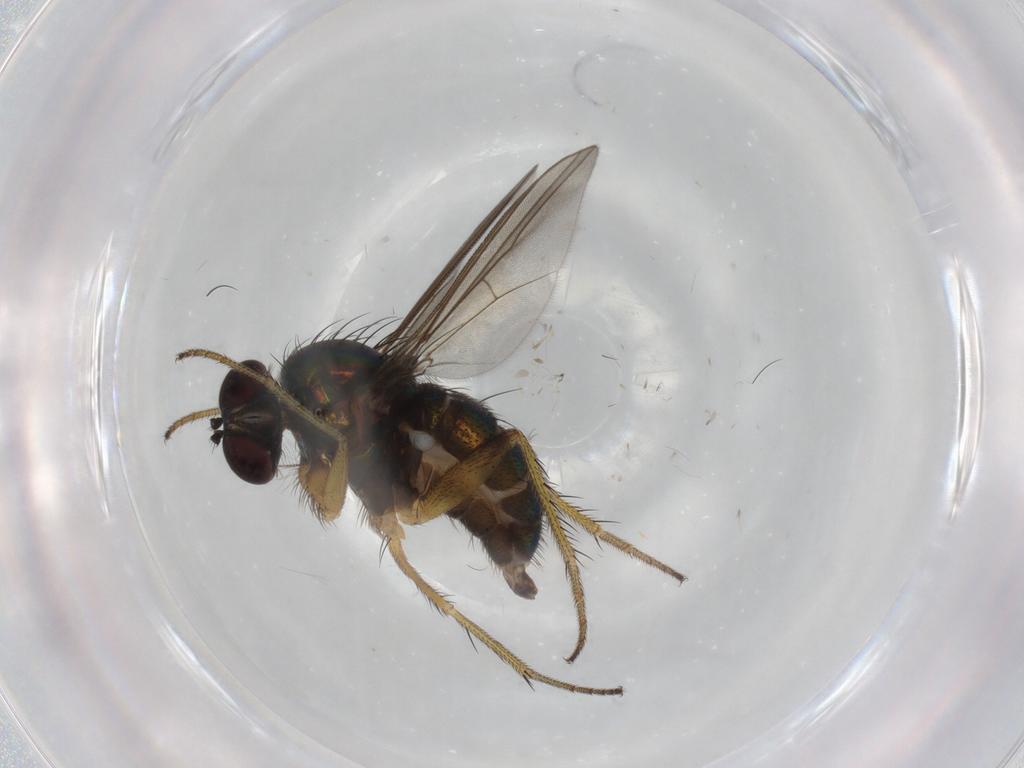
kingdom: Animalia
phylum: Arthropoda
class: Insecta
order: Diptera
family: Dolichopodidae
